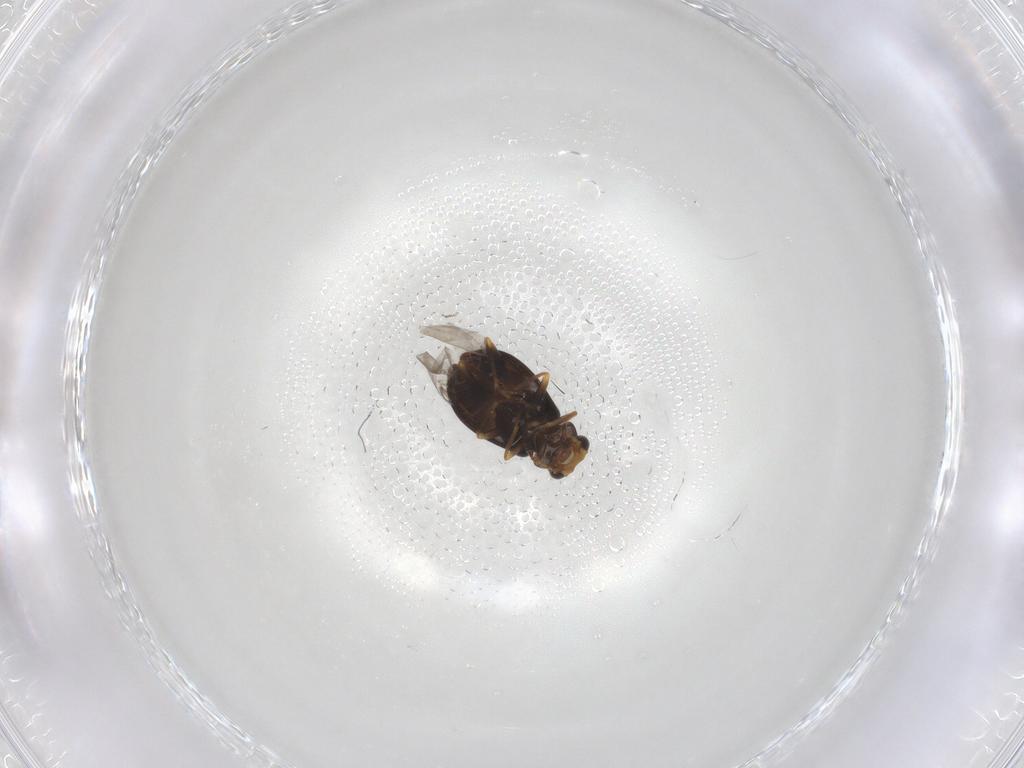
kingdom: Animalia
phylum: Arthropoda
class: Insecta
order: Coleoptera
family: Melyridae
